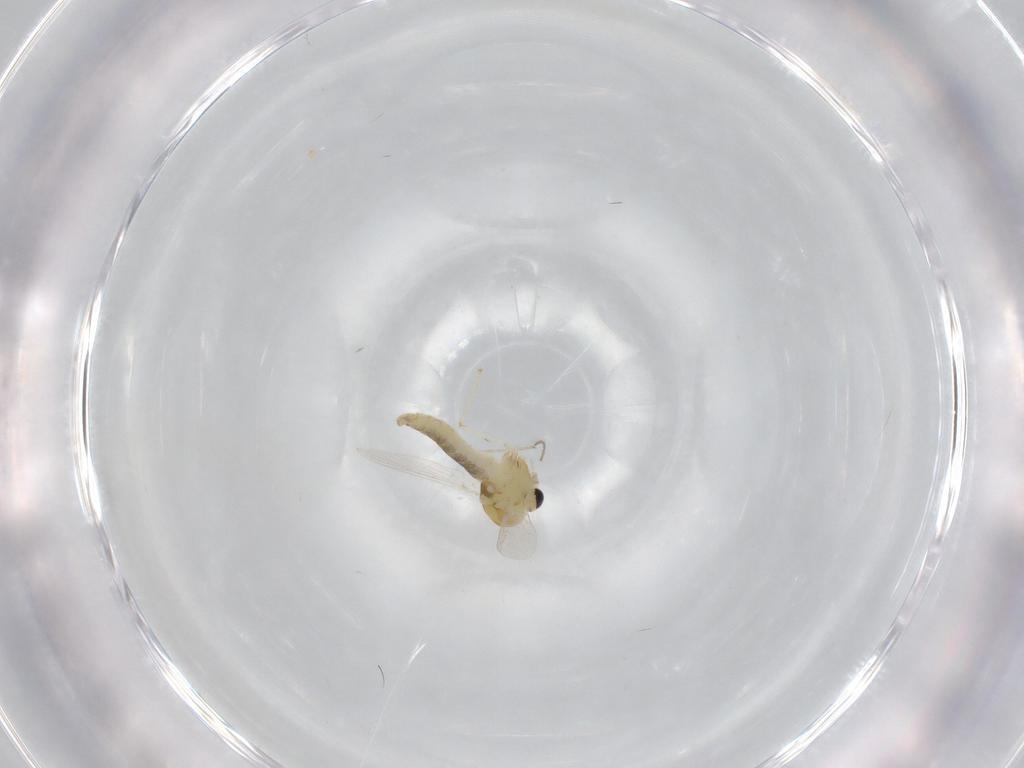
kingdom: Animalia
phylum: Arthropoda
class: Insecta
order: Diptera
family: Chironomidae
